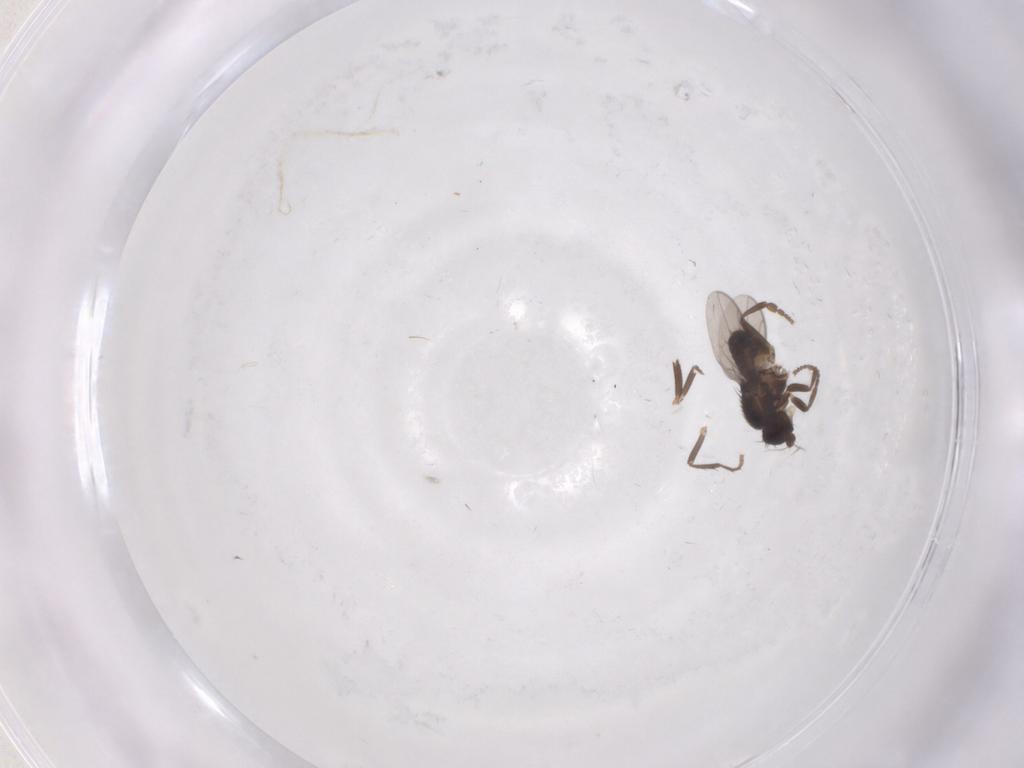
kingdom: Animalia
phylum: Arthropoda
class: Insecta
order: Diptera
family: Sphaeroceridae
